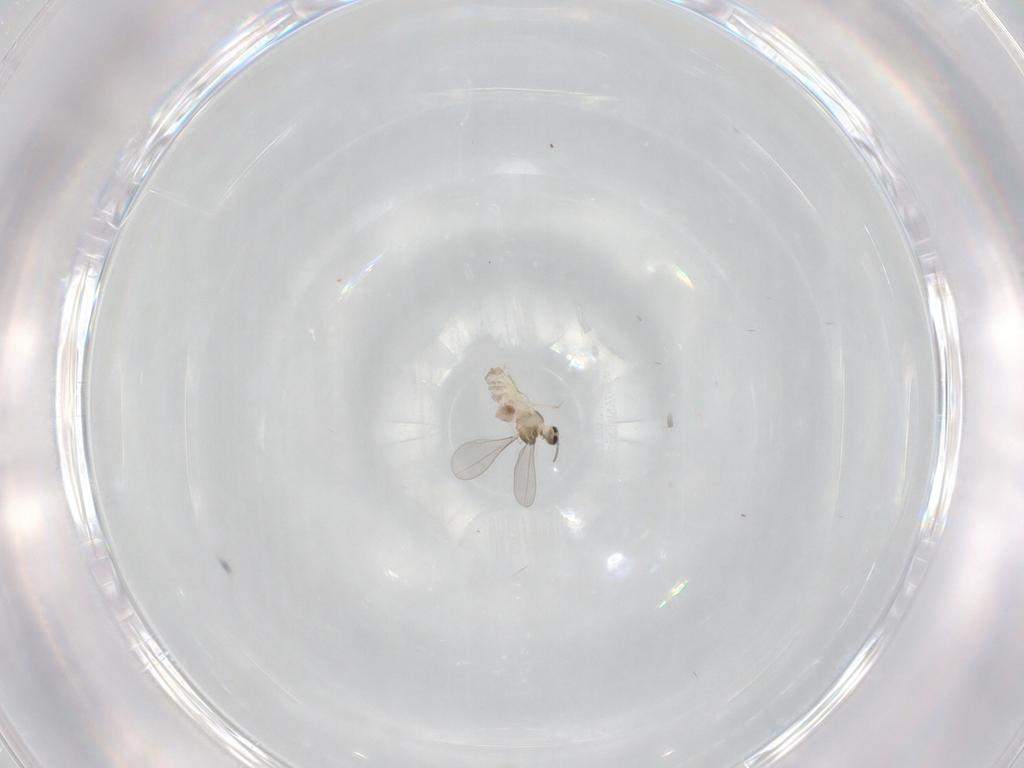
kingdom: Animalia
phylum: Arthropoda
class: Insecta
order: Diptera
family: Cecidomyiidae
